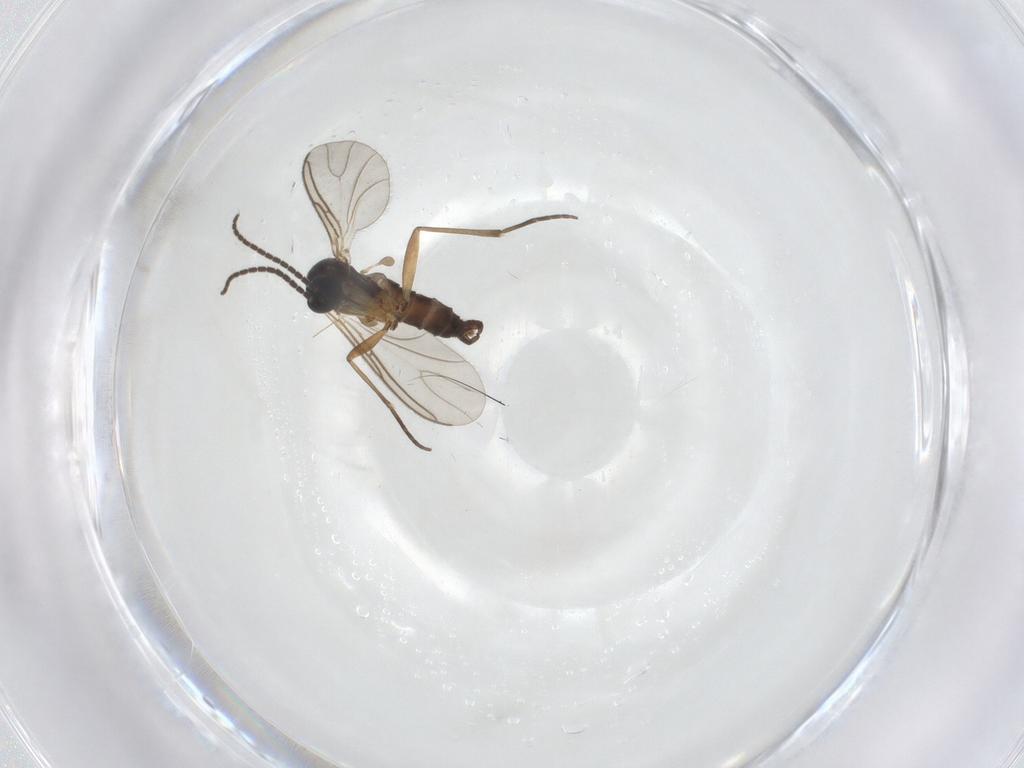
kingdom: Animalia
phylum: Arthropoda
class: Insecta
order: Diptera
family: Sciaridae
